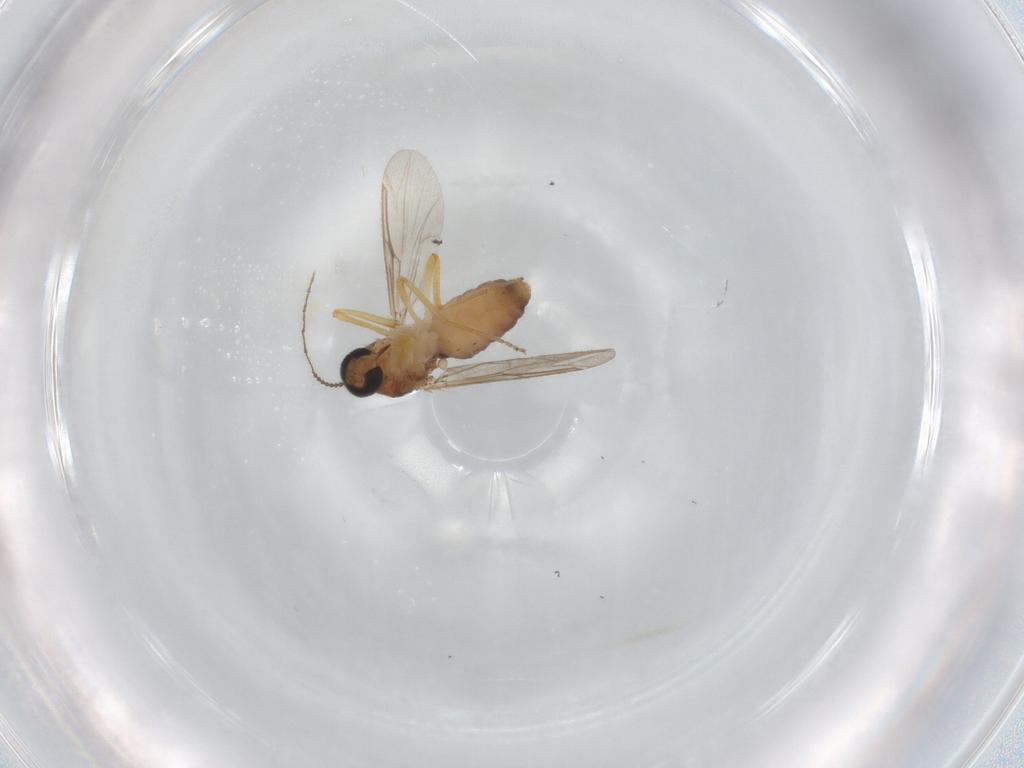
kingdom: Animalia
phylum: Arthropoda
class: Insecta
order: Diptera
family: Ceratopogonidae
